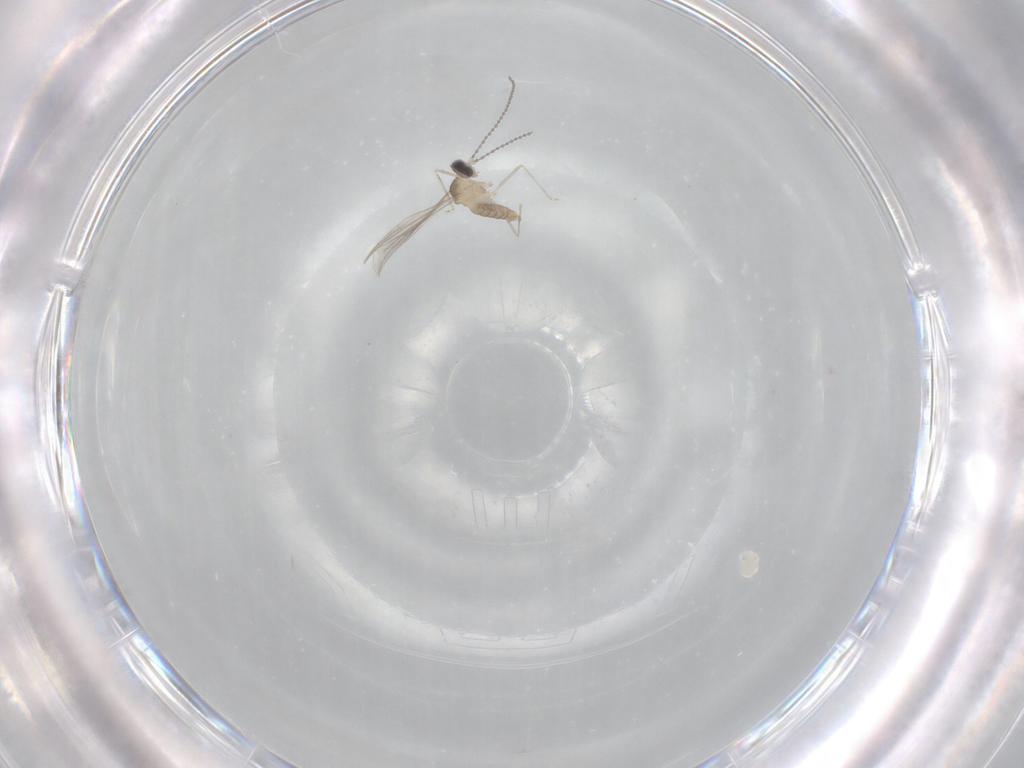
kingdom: Animalia
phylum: Arthropoda
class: Insecta
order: Diptera
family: Cecidomyiidae
